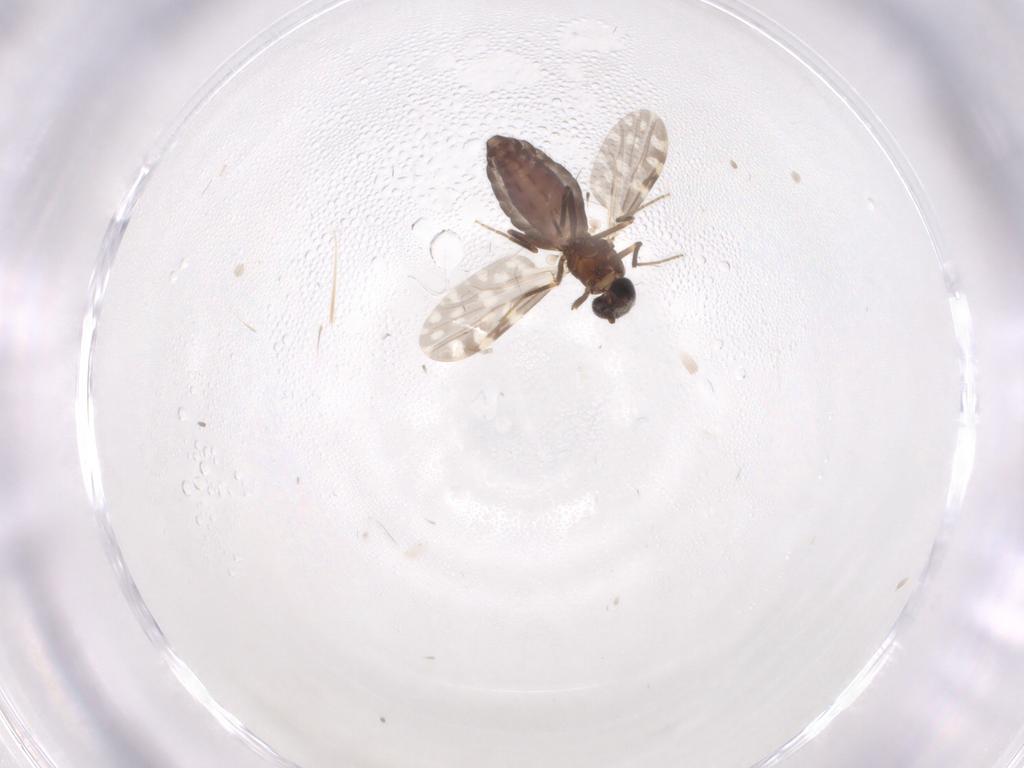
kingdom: Animalia
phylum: Arthropoda
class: Insecta
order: Diptera
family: Ceratopogonidae
